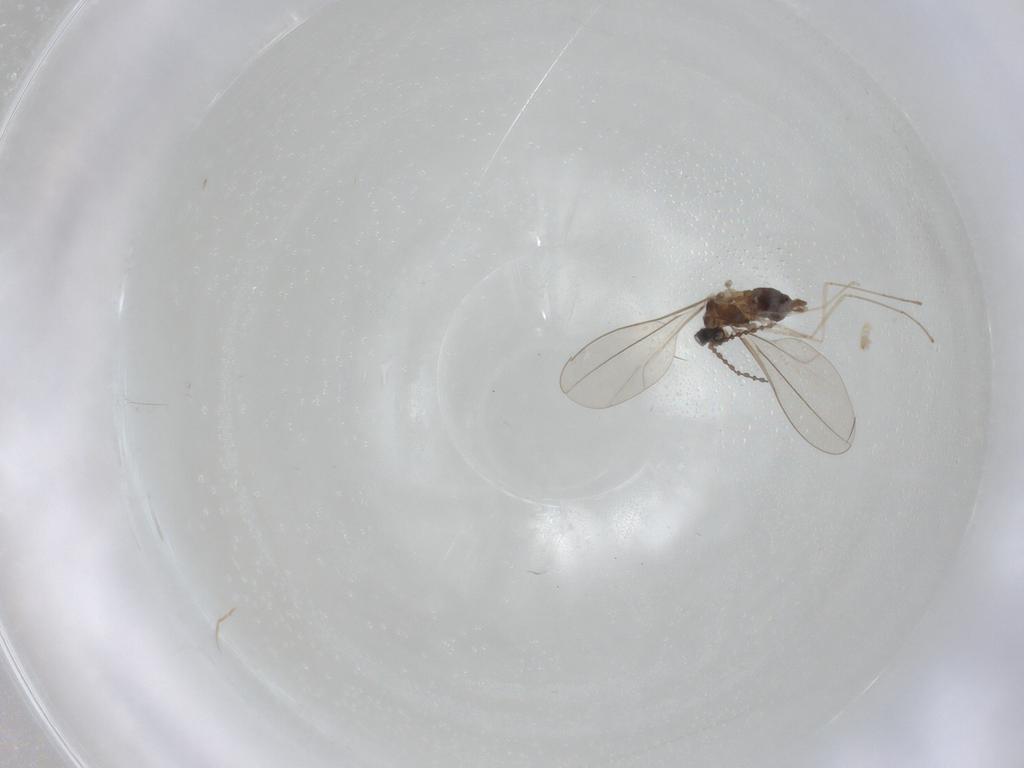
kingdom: Animalia
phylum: Arthropoda
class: Insecta
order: Diptera
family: Cecidomyiidae
